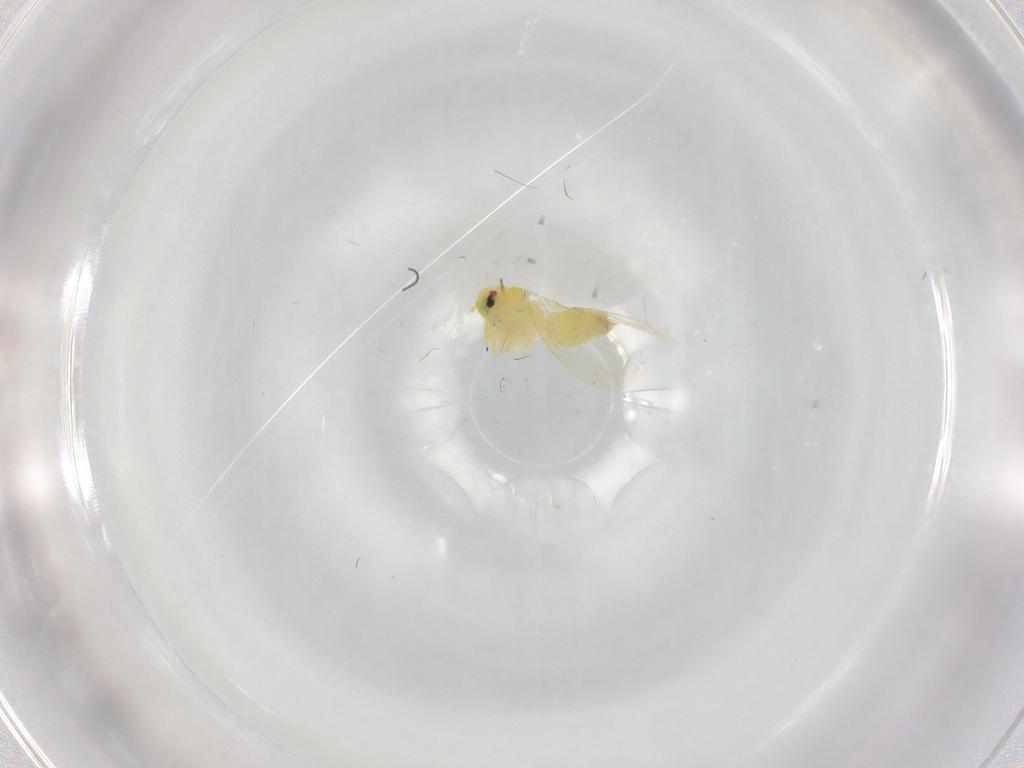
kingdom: Animalia
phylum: Arthropoda
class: Insecta
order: Hemiptera
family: Aleyrodidae
